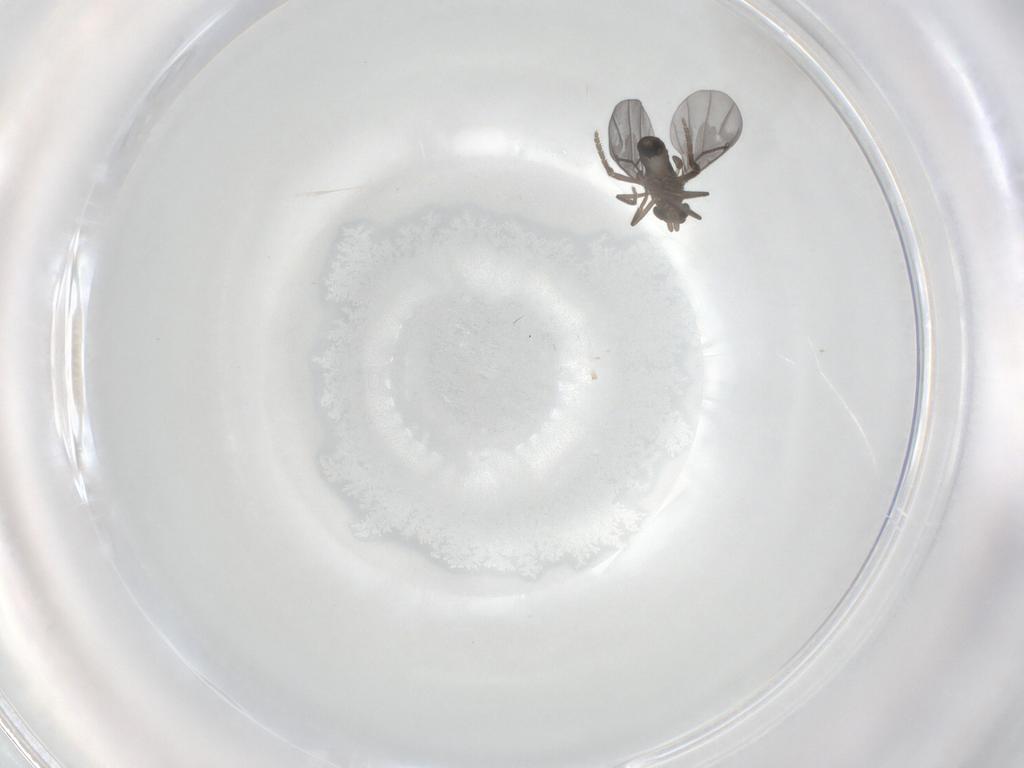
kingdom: Animalia
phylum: Arthropoda
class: Insecta
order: Diptera
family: Phoridae
